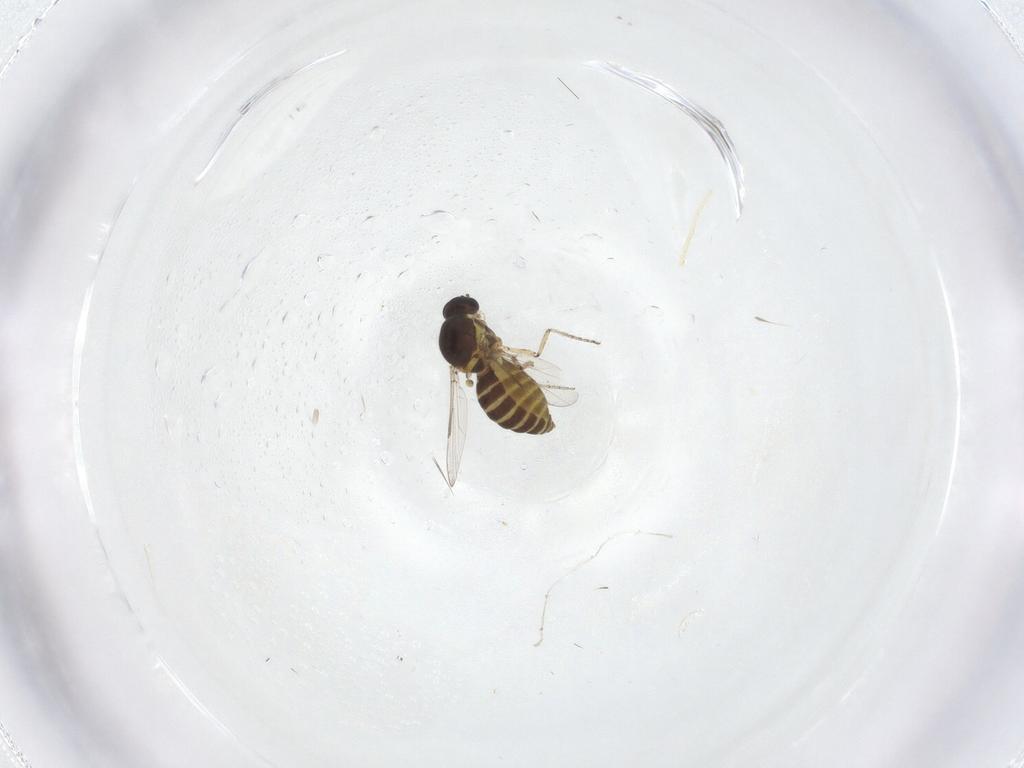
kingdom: Animalia
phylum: Arthropoda
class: Insecta
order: Diptera
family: Ceratopogonidae
